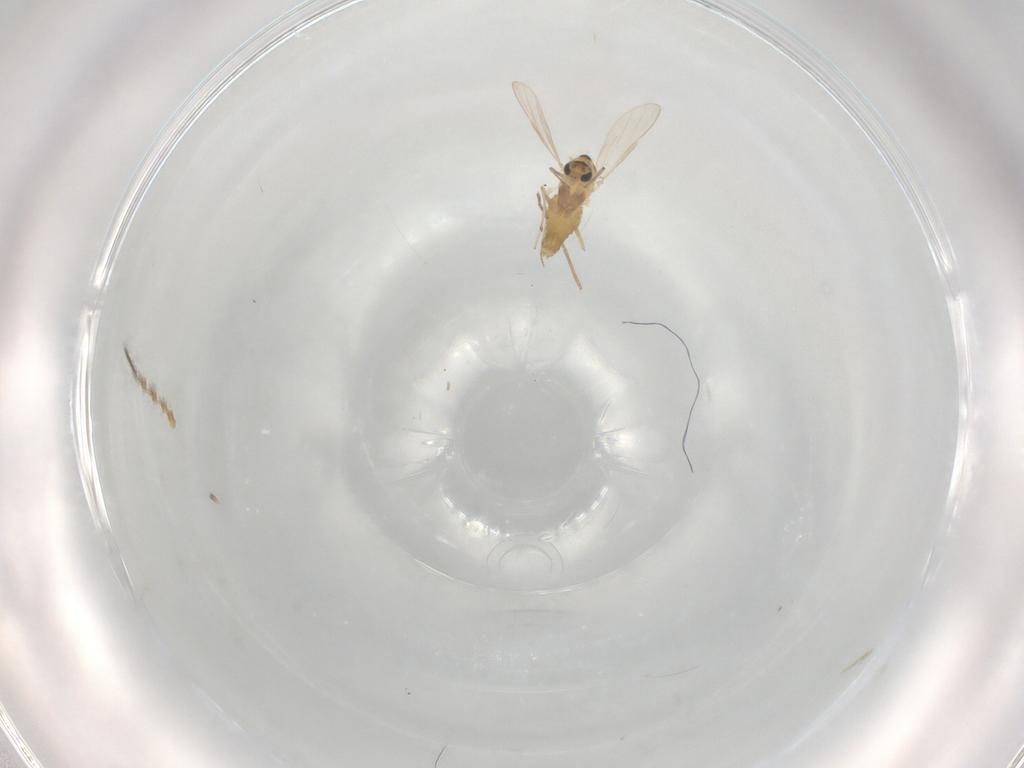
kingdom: Animalia
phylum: Arthropoda
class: Insecta
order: Diptera
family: Chironomidae
